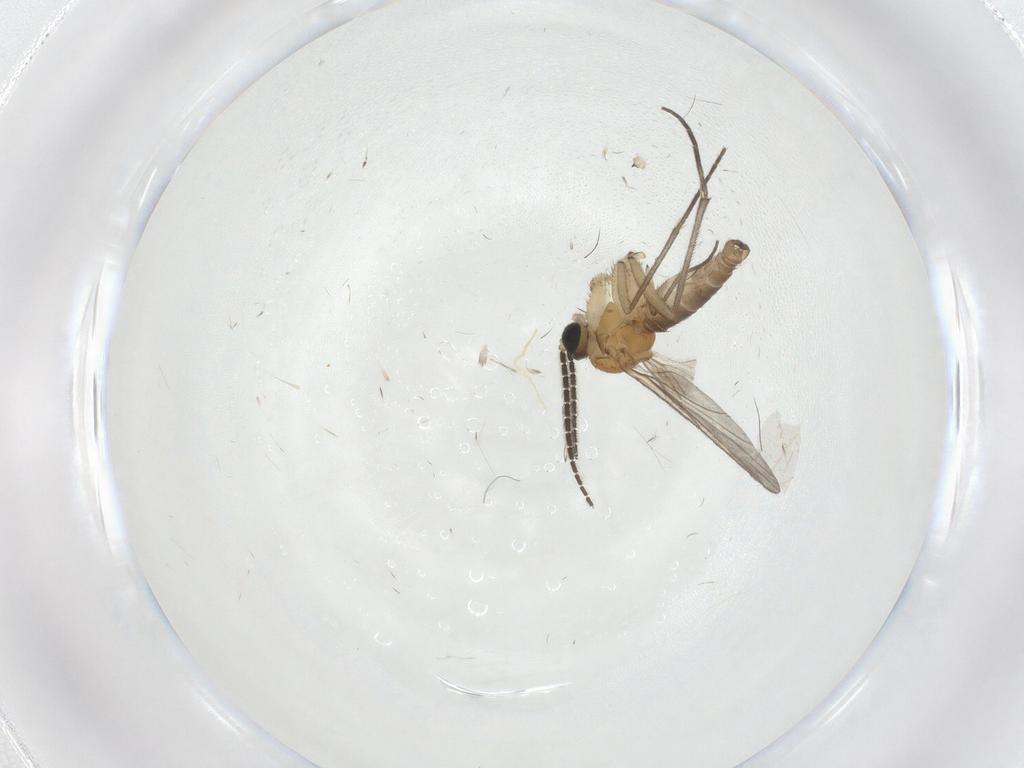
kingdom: Animalia
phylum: Arthropoda
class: Insecta
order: Diptera
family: Sciaridae
